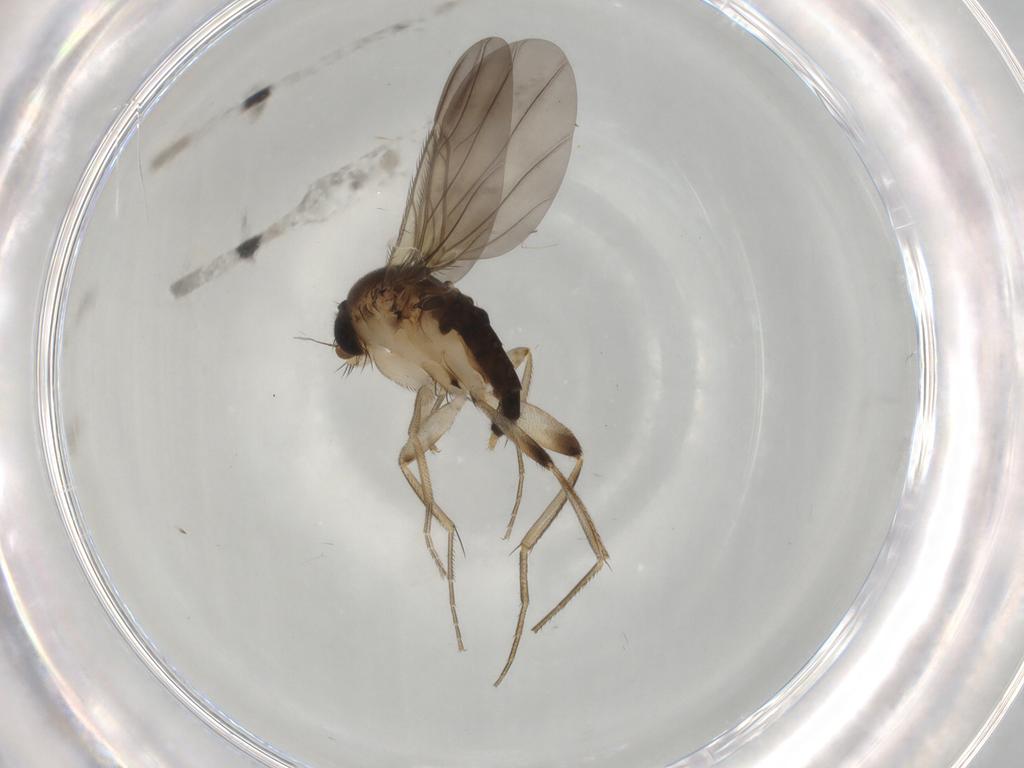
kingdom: Animalia
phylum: Arthropoda
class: Insecta
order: Diptera
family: Phoridae
